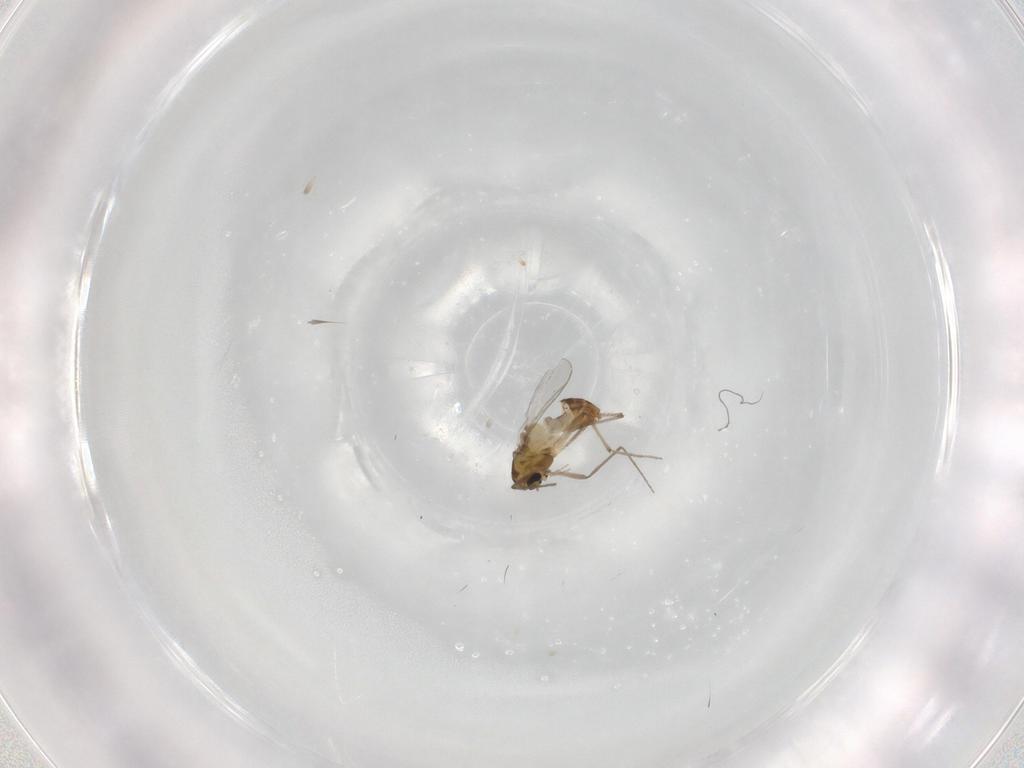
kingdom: Animalia
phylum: Arthropoda
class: Insecta
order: Diptera
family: Chironomidae
